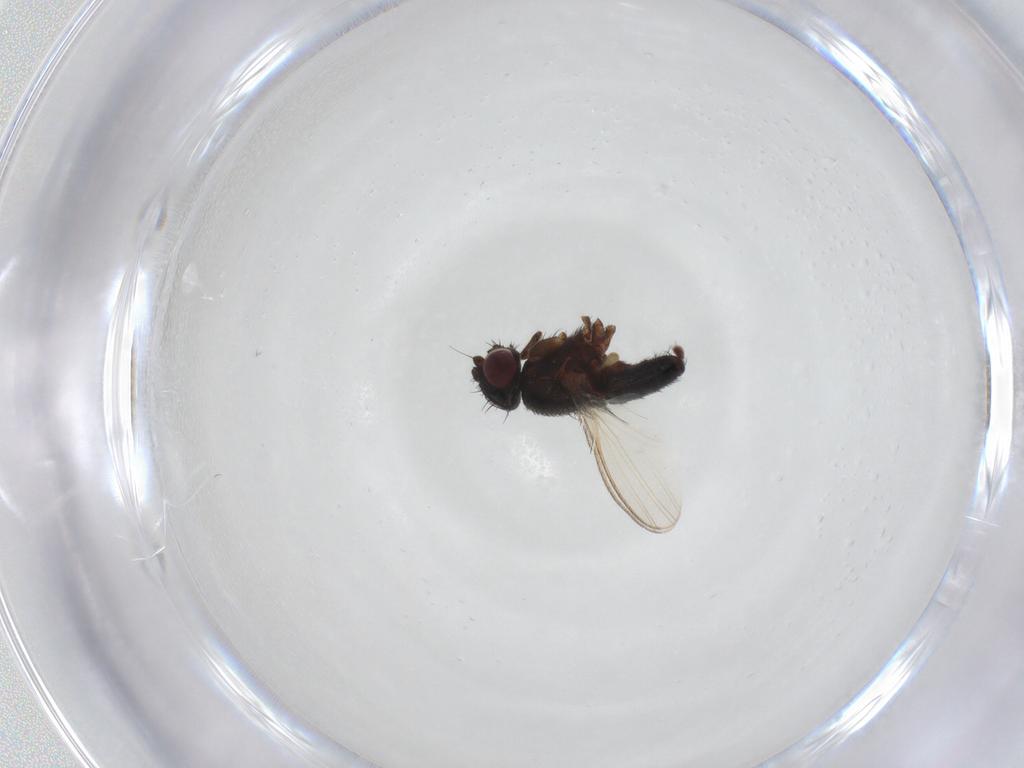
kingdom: Animalia
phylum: Arthropoda
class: Insecta
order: Diptera
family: Milichiidae
